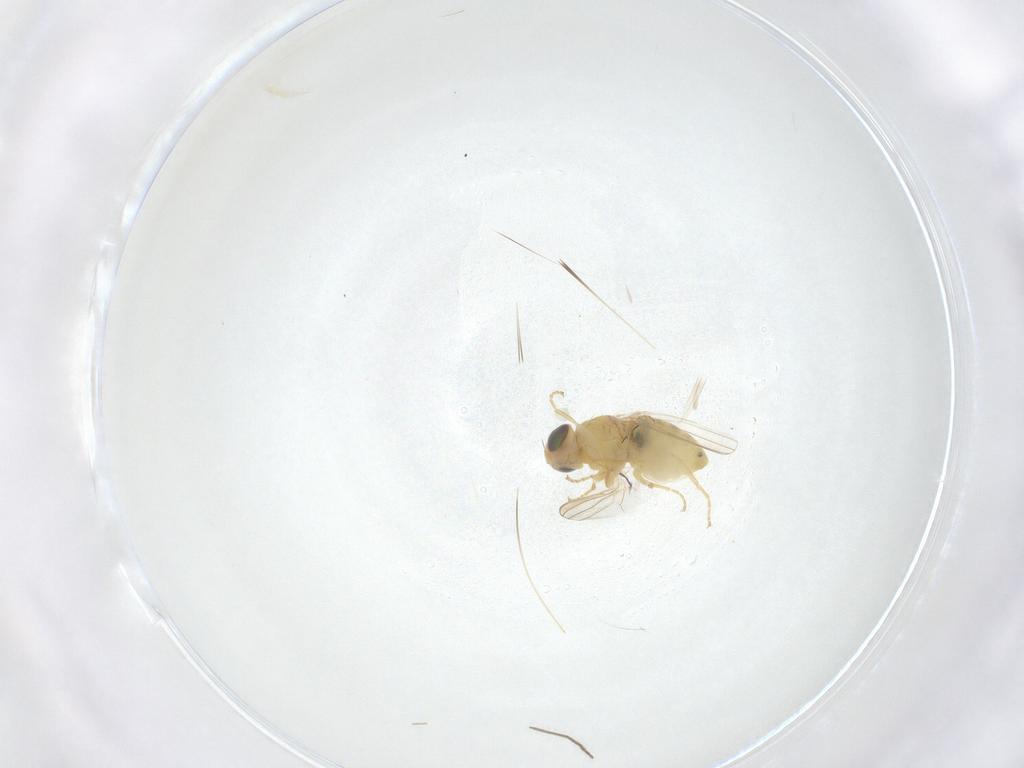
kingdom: Animalia
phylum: Arthropoda
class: Insecta
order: Diptera
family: Chyromyidae
